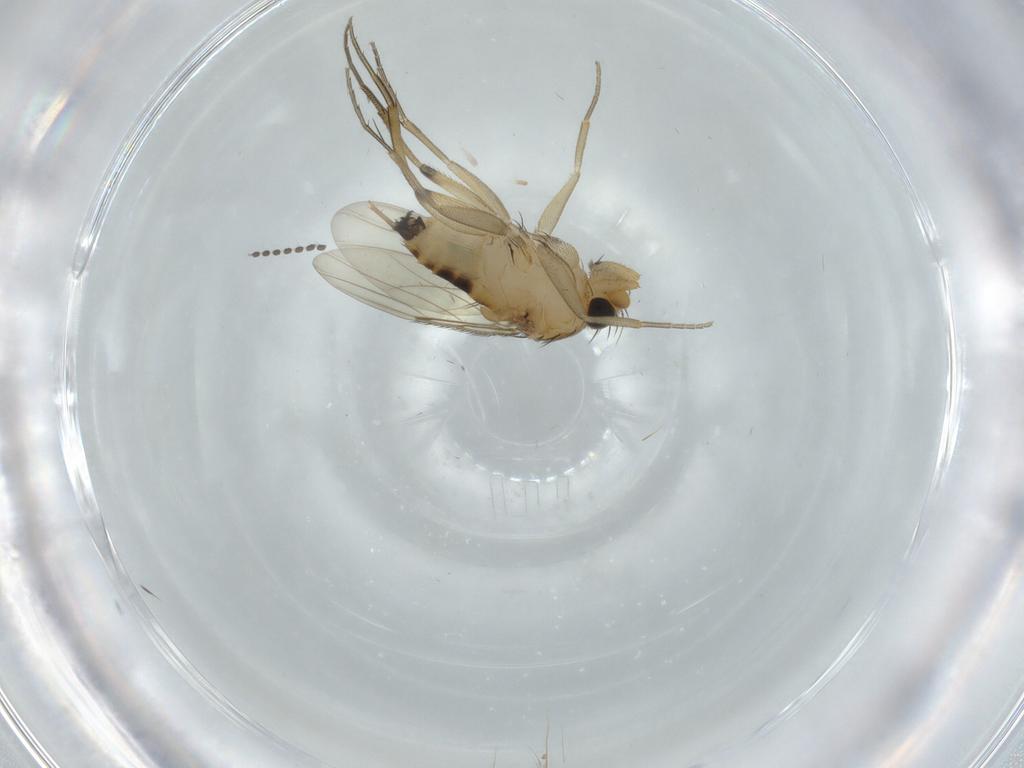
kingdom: Animalia
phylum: Arthropoda
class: Insecta
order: Diptera
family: Phoridae
